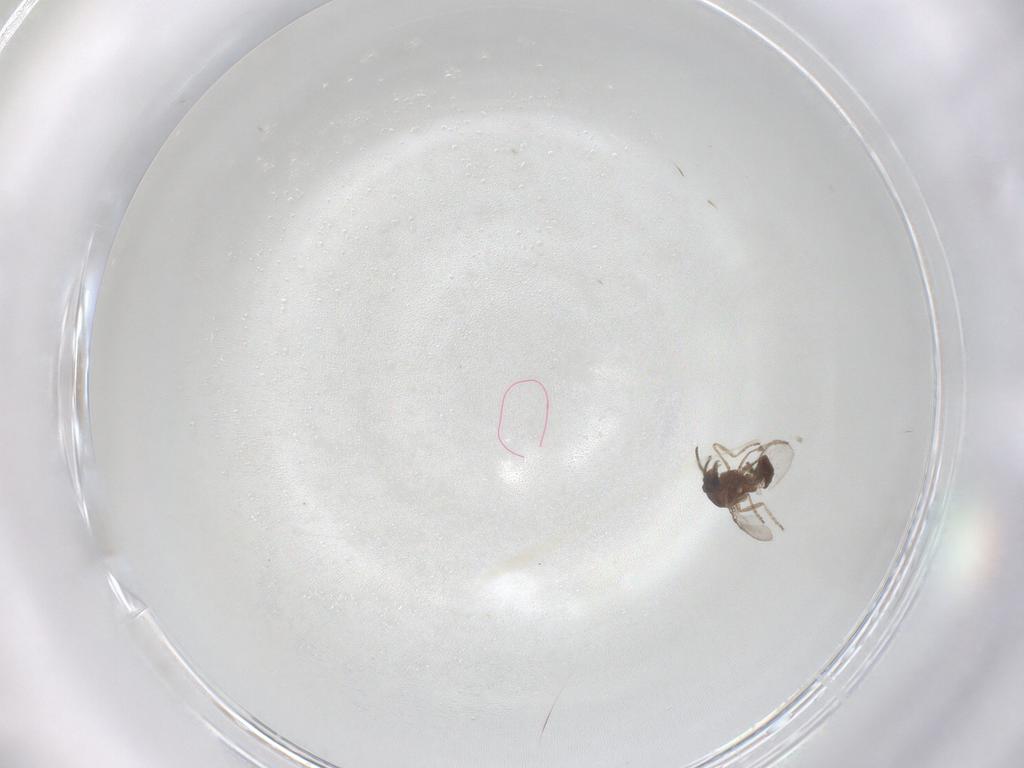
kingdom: Animalia
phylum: Arthropoda
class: Insecta
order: Diptera
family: Ceratopogonidae
